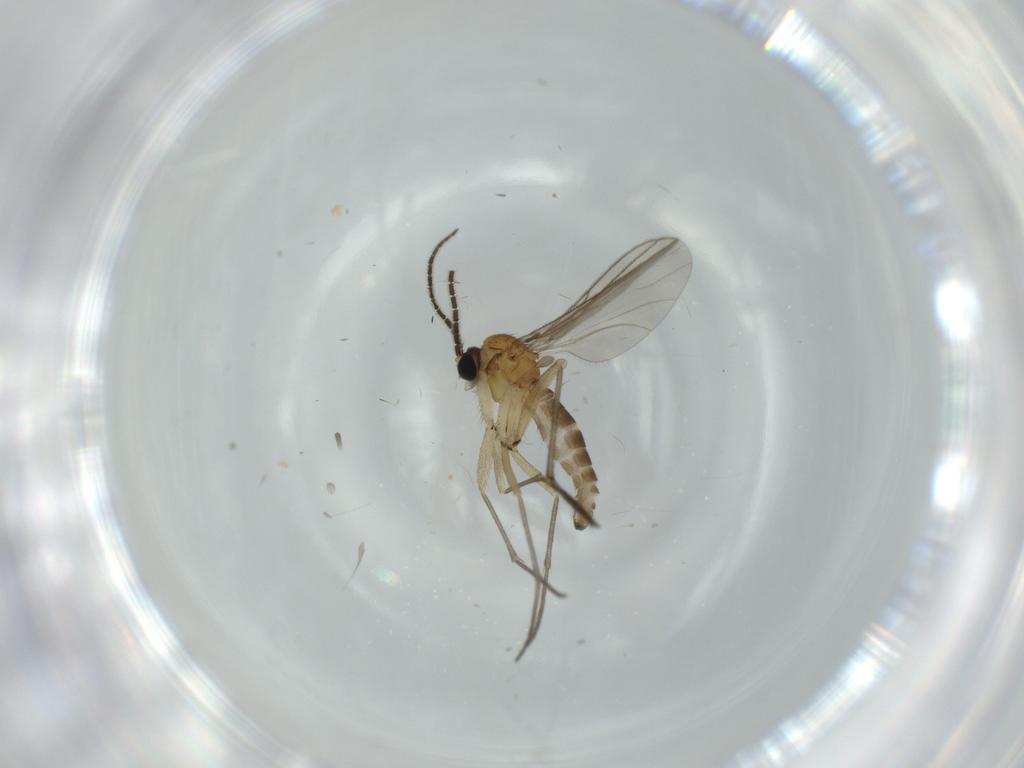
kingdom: Animalia
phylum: Arthropoda
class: Insecta
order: Diptera
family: Sciaridae
